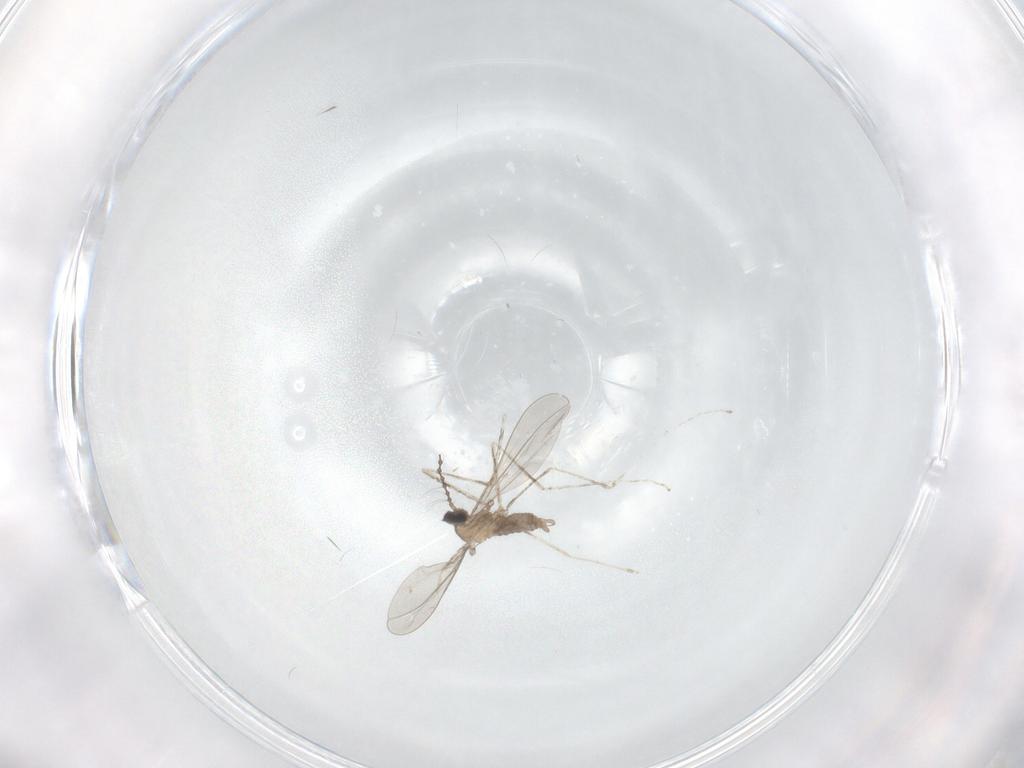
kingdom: Animalia
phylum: Arthropoda
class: Insecta
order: Diptera
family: Cecidomyiidae
